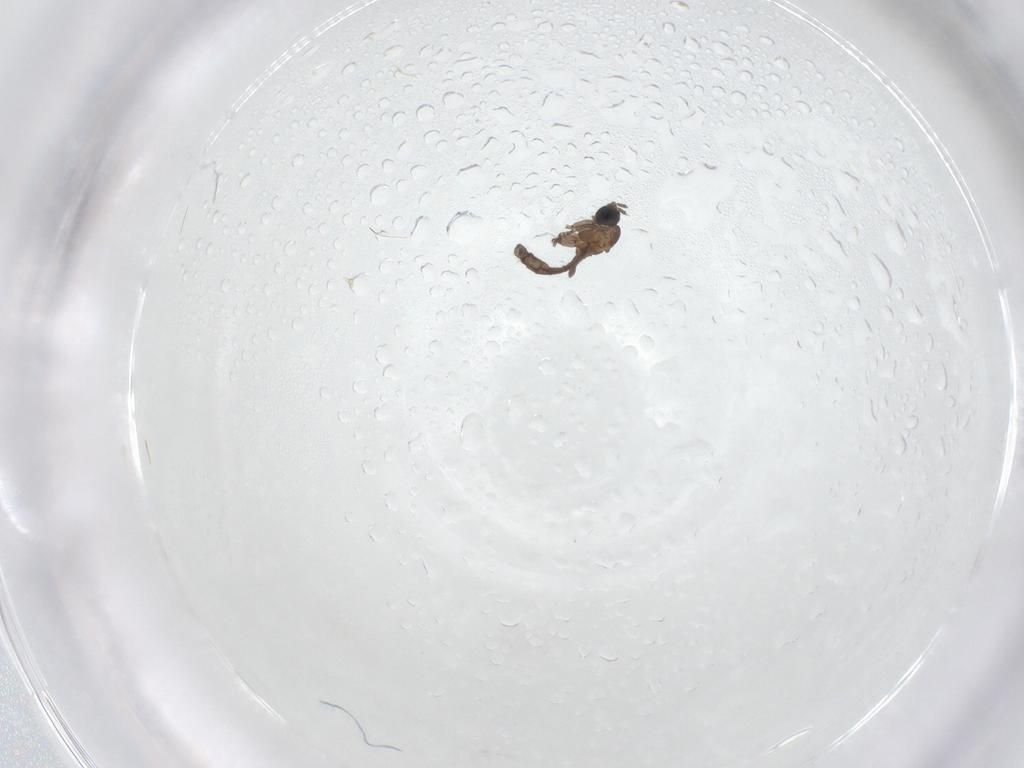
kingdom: Animalia
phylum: Arthropoda
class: Insecta
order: Diptera
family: Sciaridae
